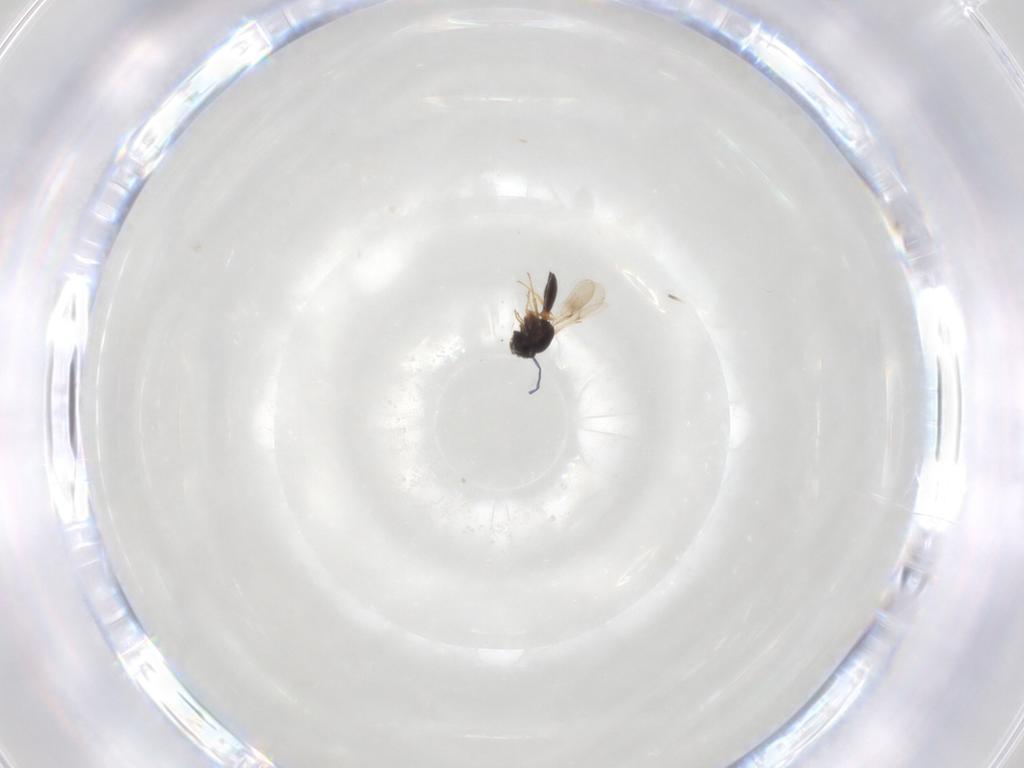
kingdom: Animalia
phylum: Arthropoda
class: Insecta
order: Hymenoptera
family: Scelionidae
